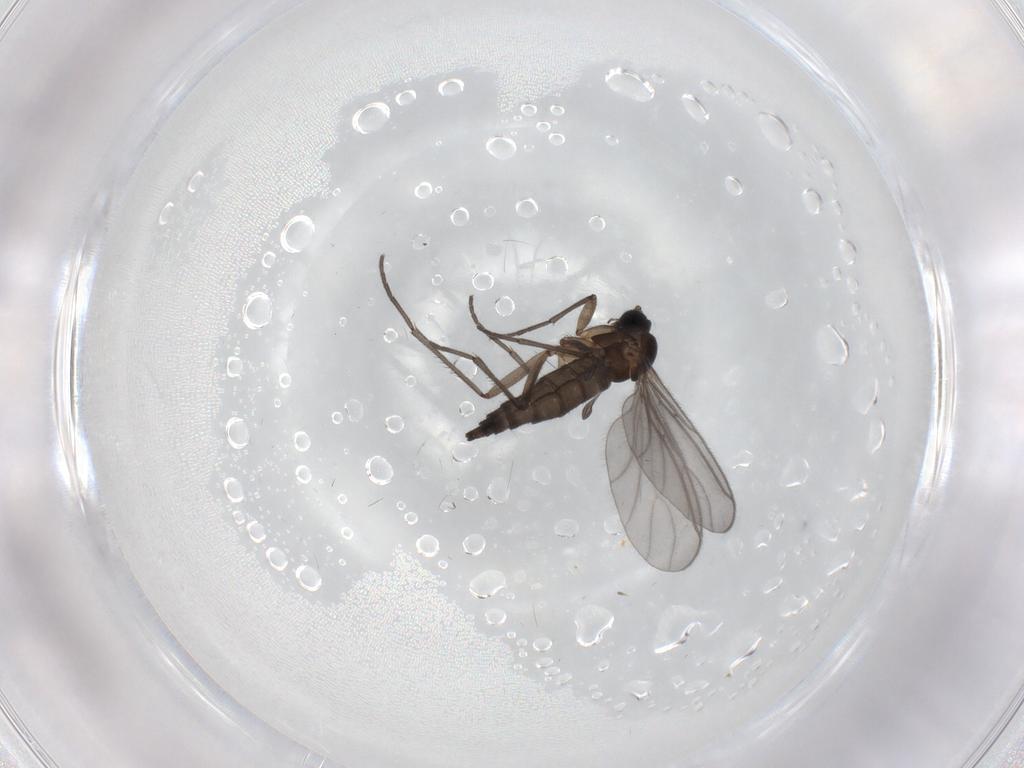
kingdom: Animalia
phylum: Arthropoda
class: Insecta
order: Diptera
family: Sciaridae
